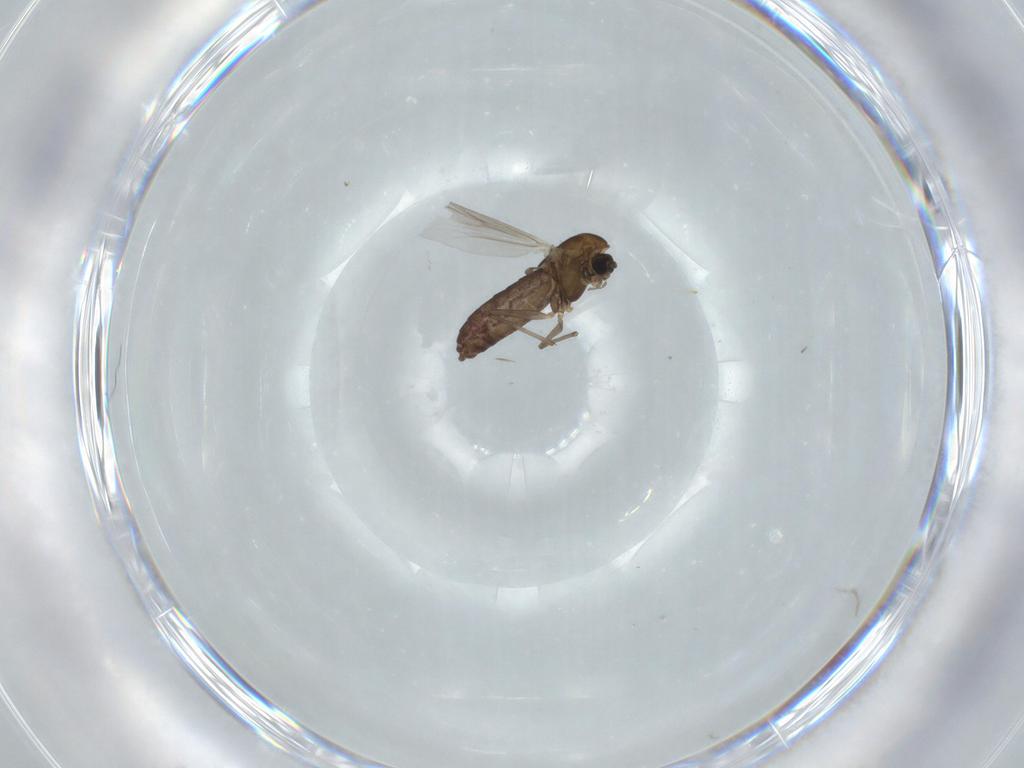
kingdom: Animalia
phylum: Arthropoda
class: Insecta
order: Diptera
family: Chironomidae
